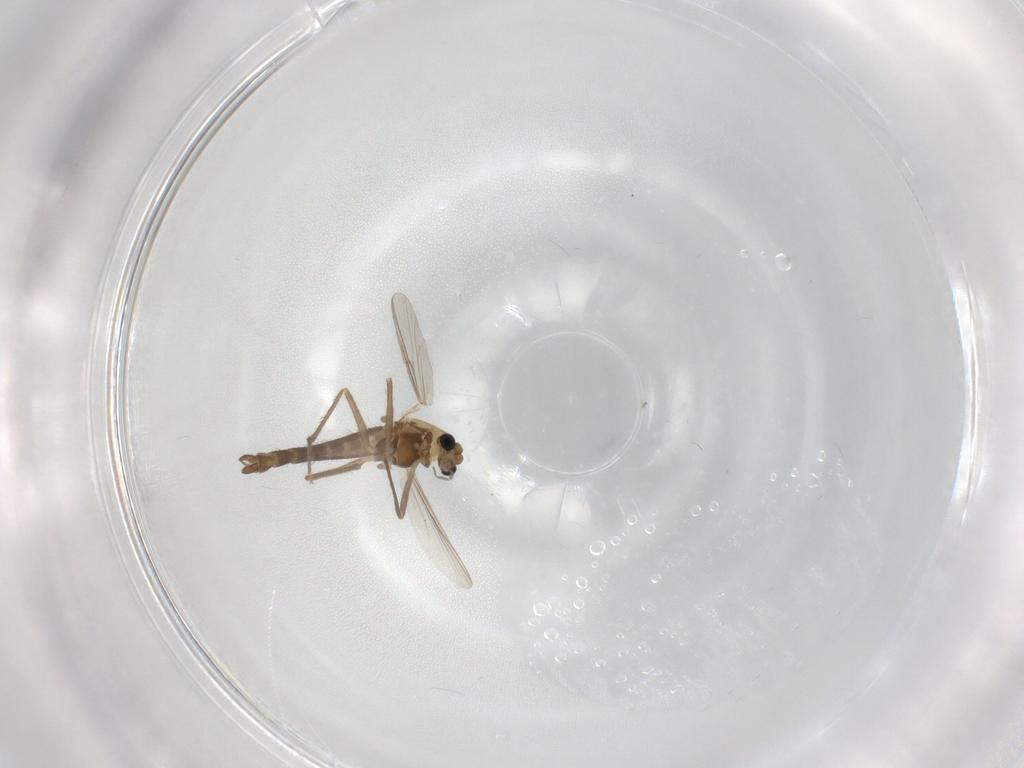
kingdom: Animalia
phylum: Arthropoda
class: Insecta
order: Diptera
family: Chironomidae
